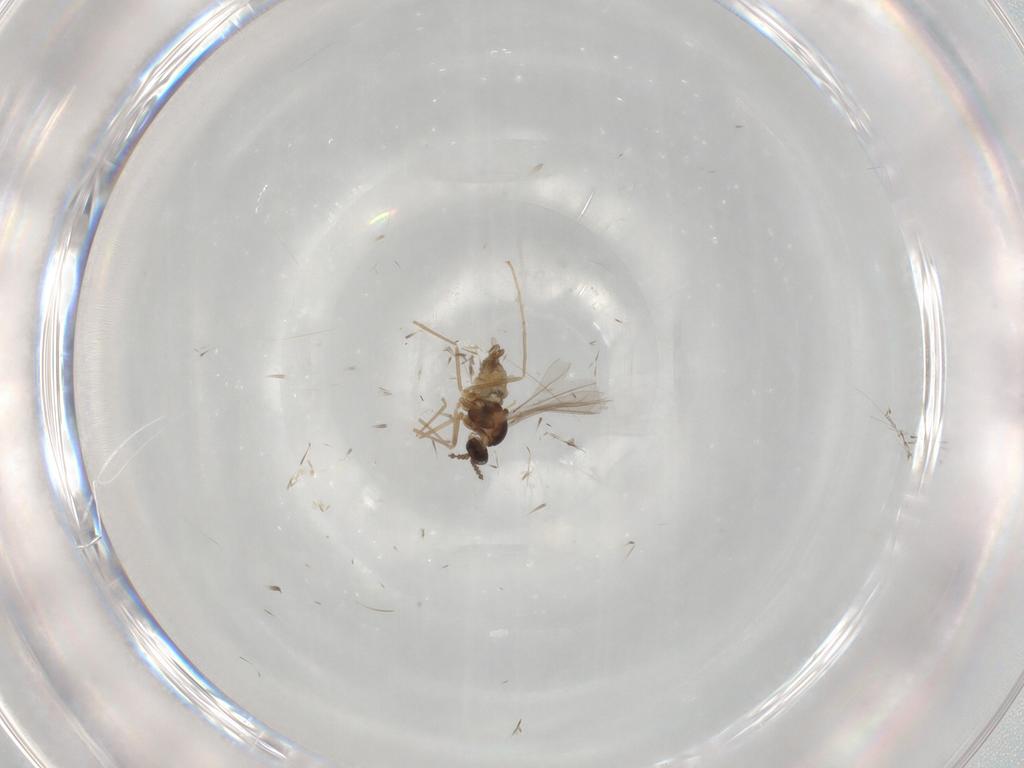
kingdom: Animalia
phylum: Arthropoda
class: Insecta
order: Diptera
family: Cecidomyiidae
